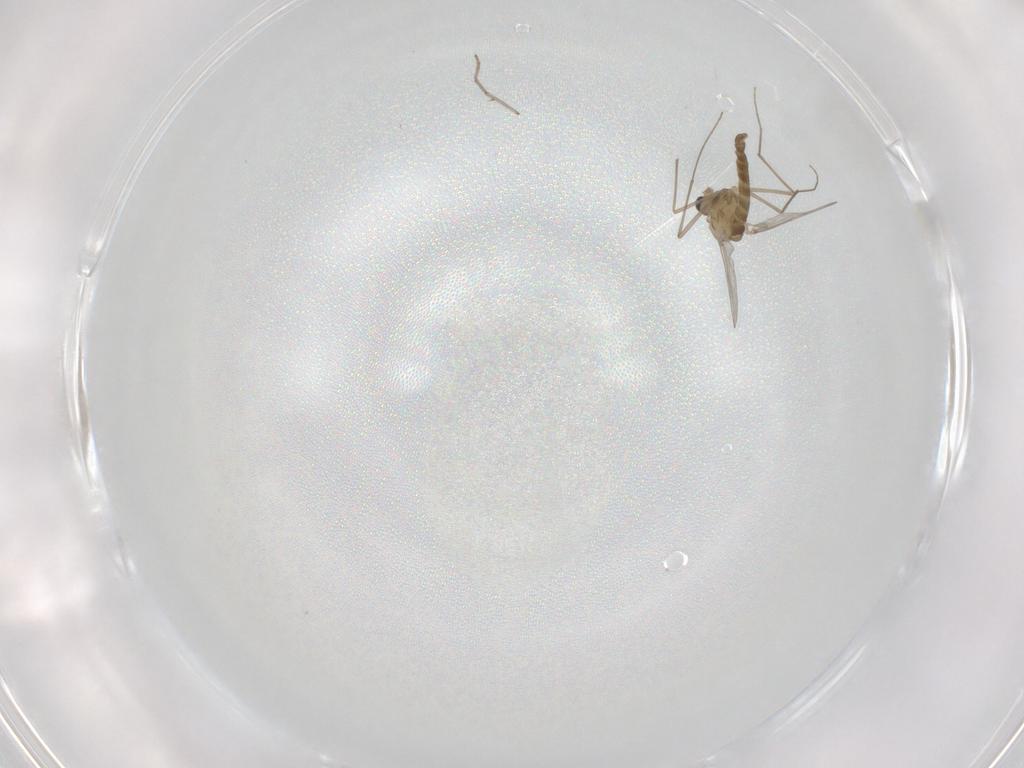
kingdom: Animalia
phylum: Arthropoda
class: Insecta
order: Diptera
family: Chironomidae
